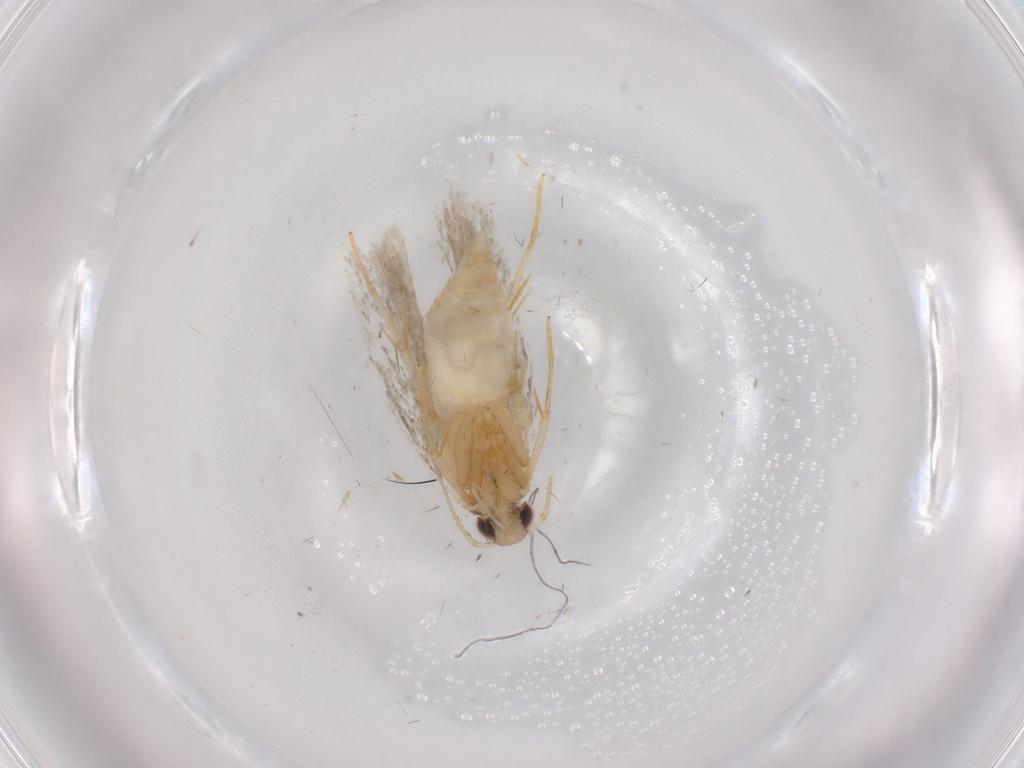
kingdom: Animalia
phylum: Arthropoda
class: Insecta
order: Lepidoptera
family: Autostichidae
